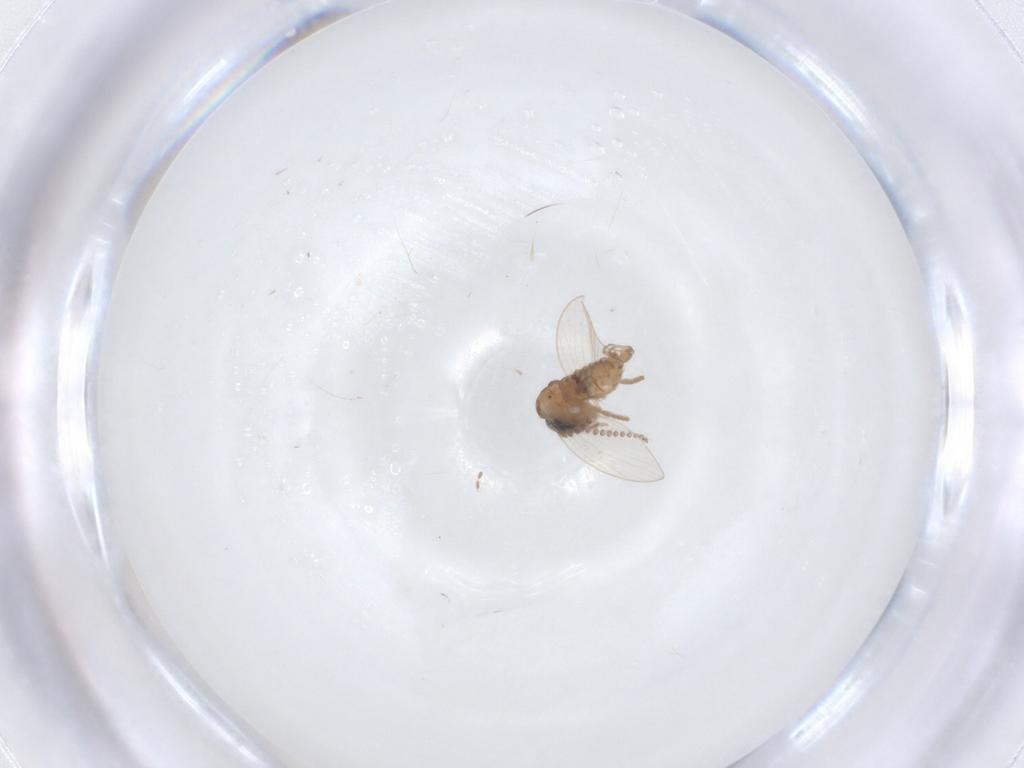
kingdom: Animalia
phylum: Arthropoda
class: Insecta
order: Diptera
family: Psychodidae
